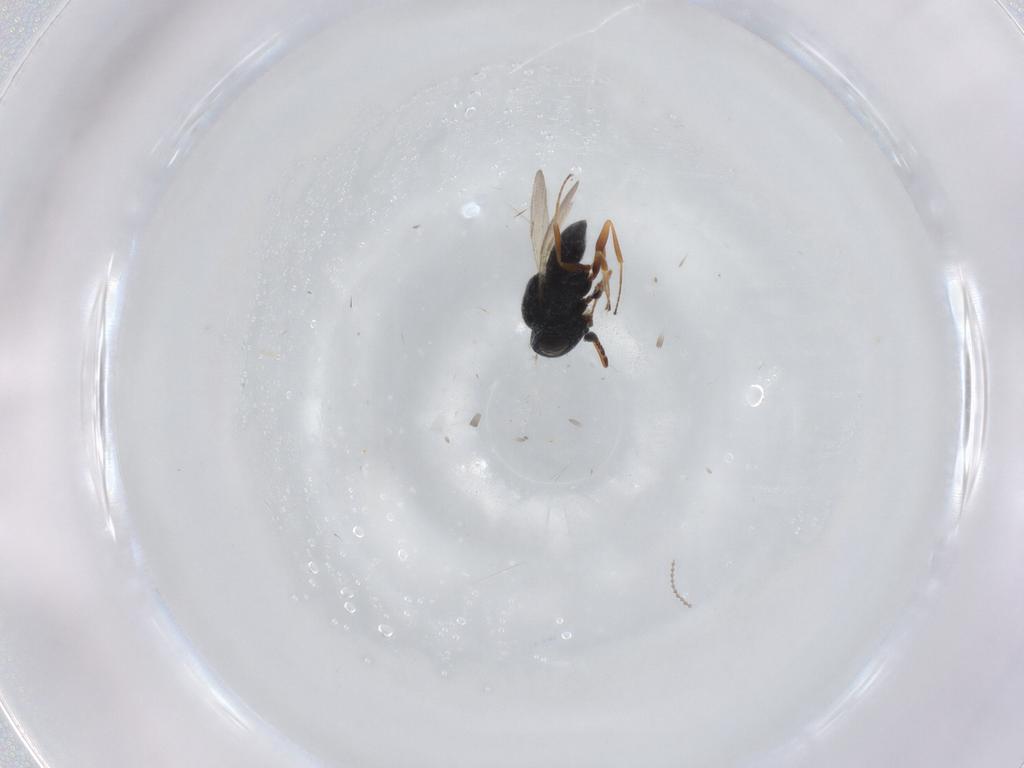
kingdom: Animalia
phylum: Arthropoda
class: Insecta
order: Hymenoptera
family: Scelionidae
